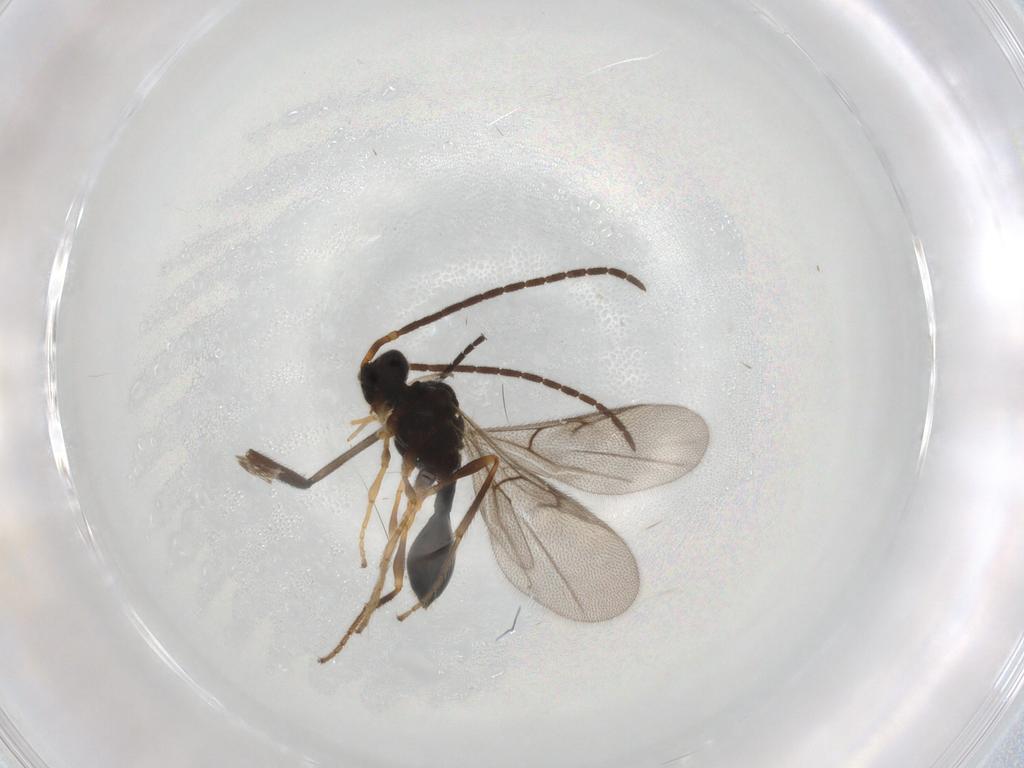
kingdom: Animalia
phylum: Arthropoda
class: Insecta
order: Hymenoptera
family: Diapriidae
